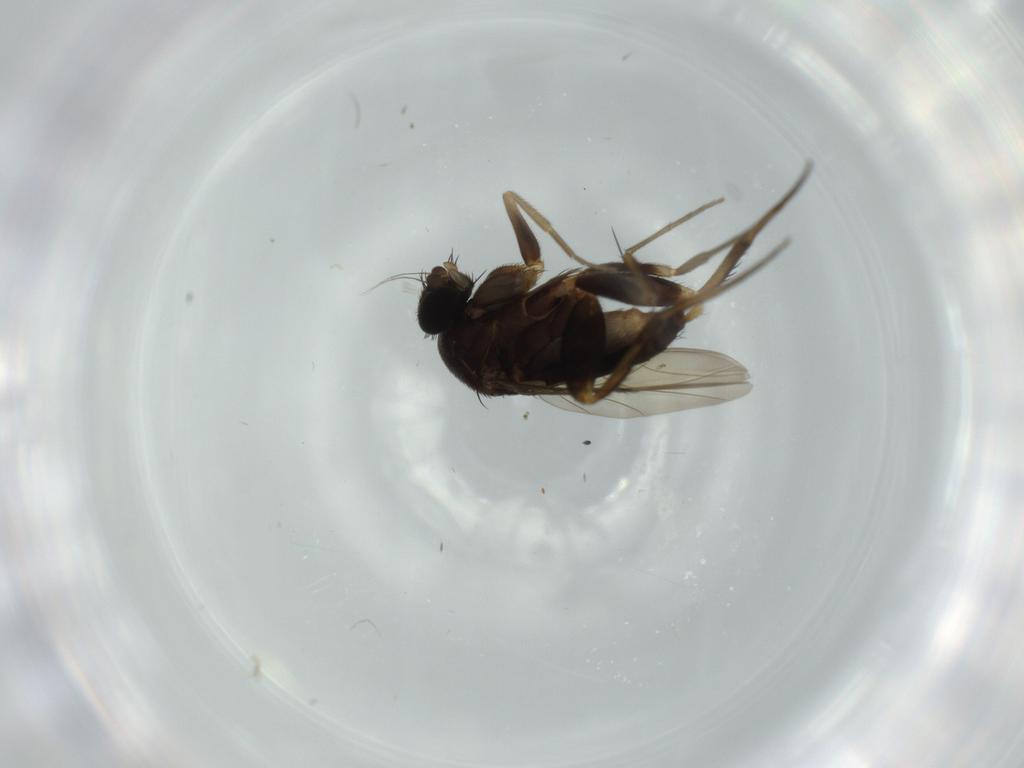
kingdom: Animalia
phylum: Arthropoda
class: Insecta
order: Diptera
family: Phoridae
